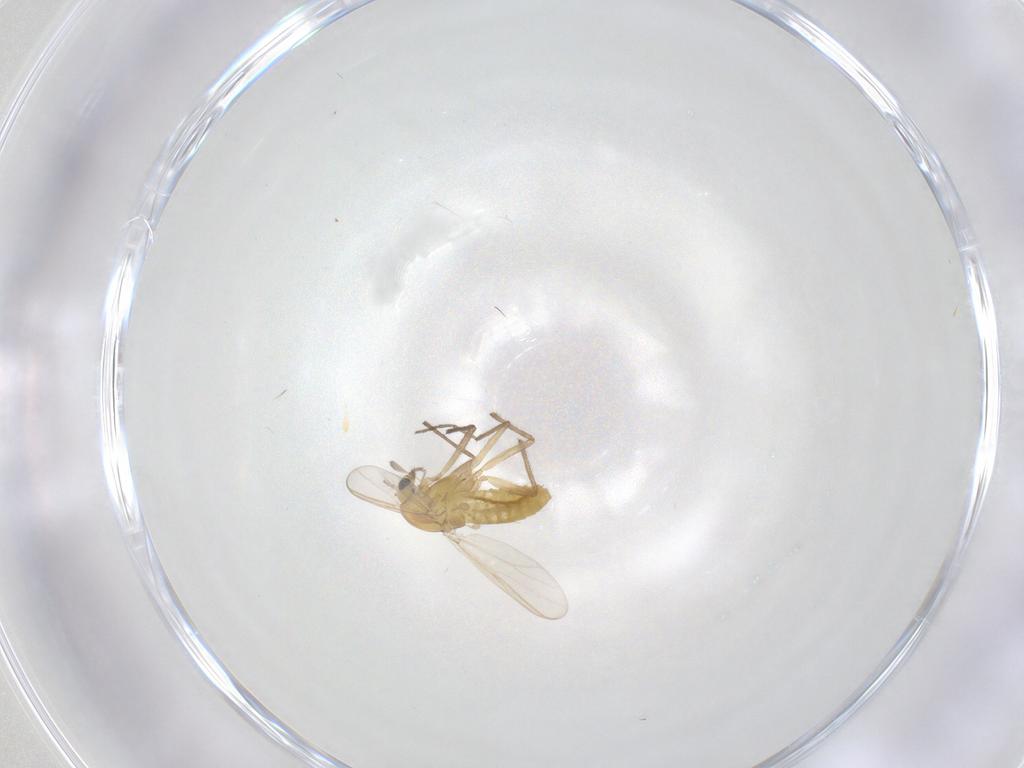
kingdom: Animalia
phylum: Arthropoda
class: Insecta
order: Diptera
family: Chironomidae
